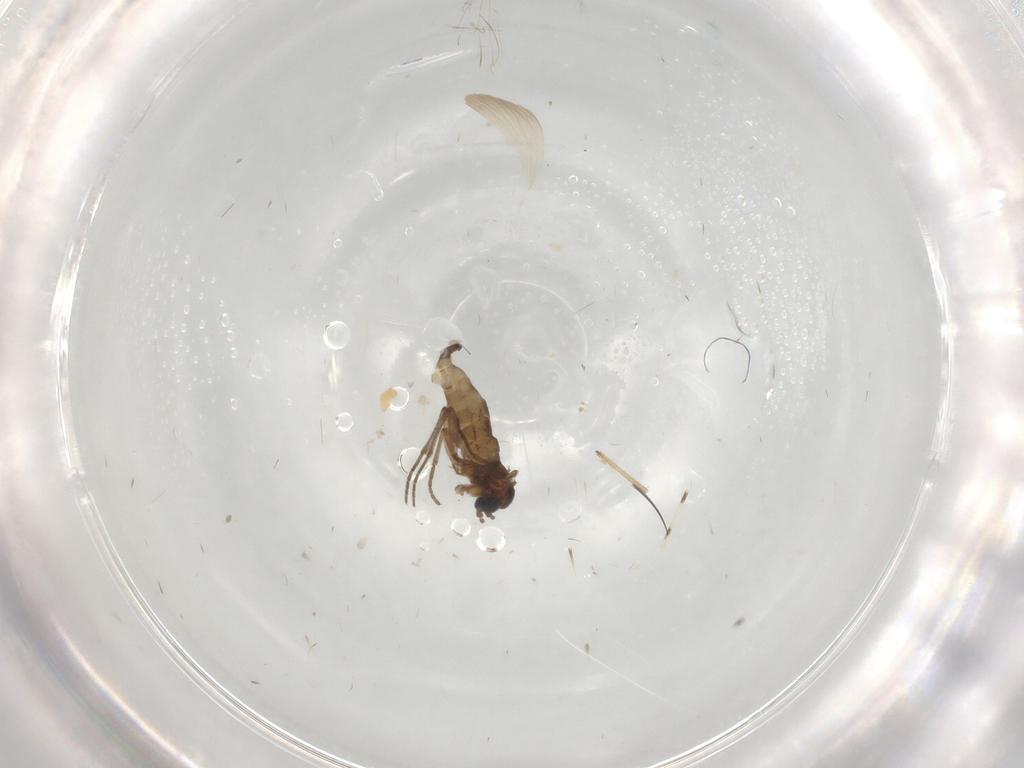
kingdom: Animalia
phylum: Arthropoda
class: Insecta
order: Diptera
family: Chaoboridae
